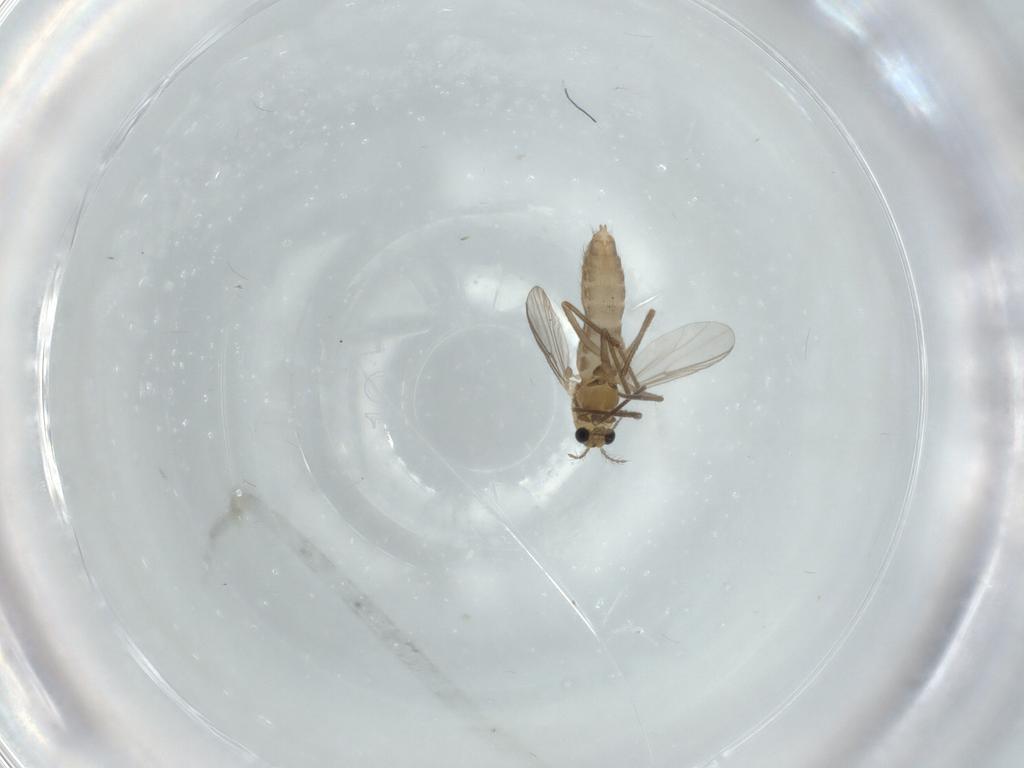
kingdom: Animalia
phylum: Arthropoda
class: Insecta
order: Diptera
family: Chironomidae
